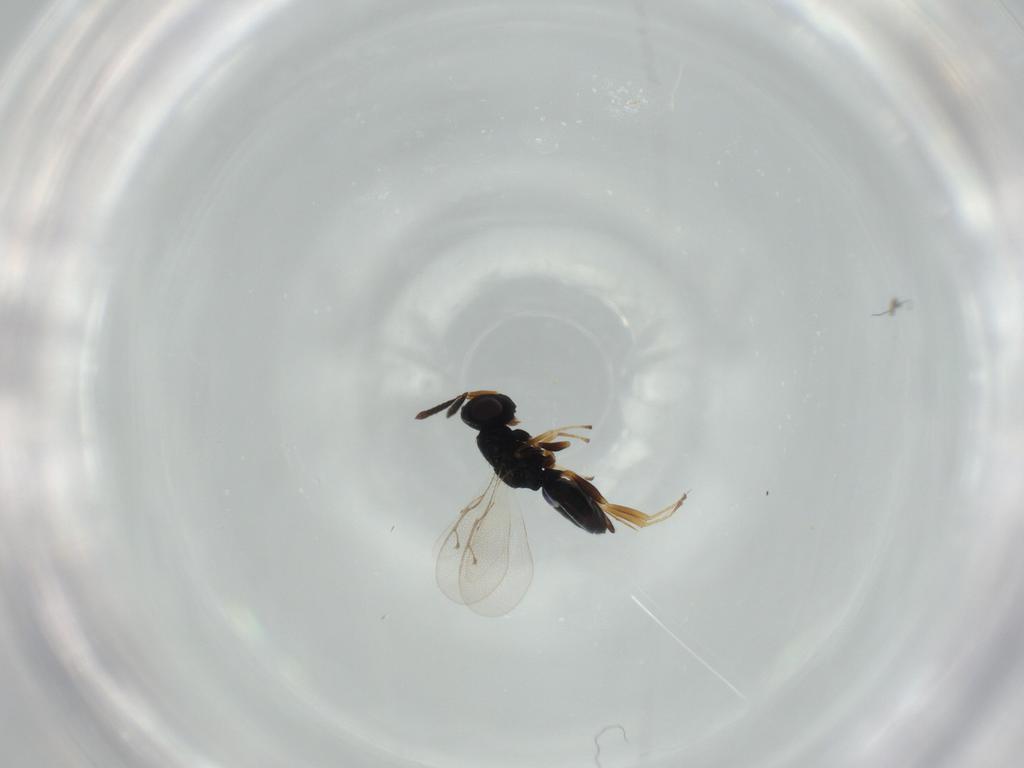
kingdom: Animalia
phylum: Arthropoda
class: Insecta
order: Hymenoptera
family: Pteromalidae
